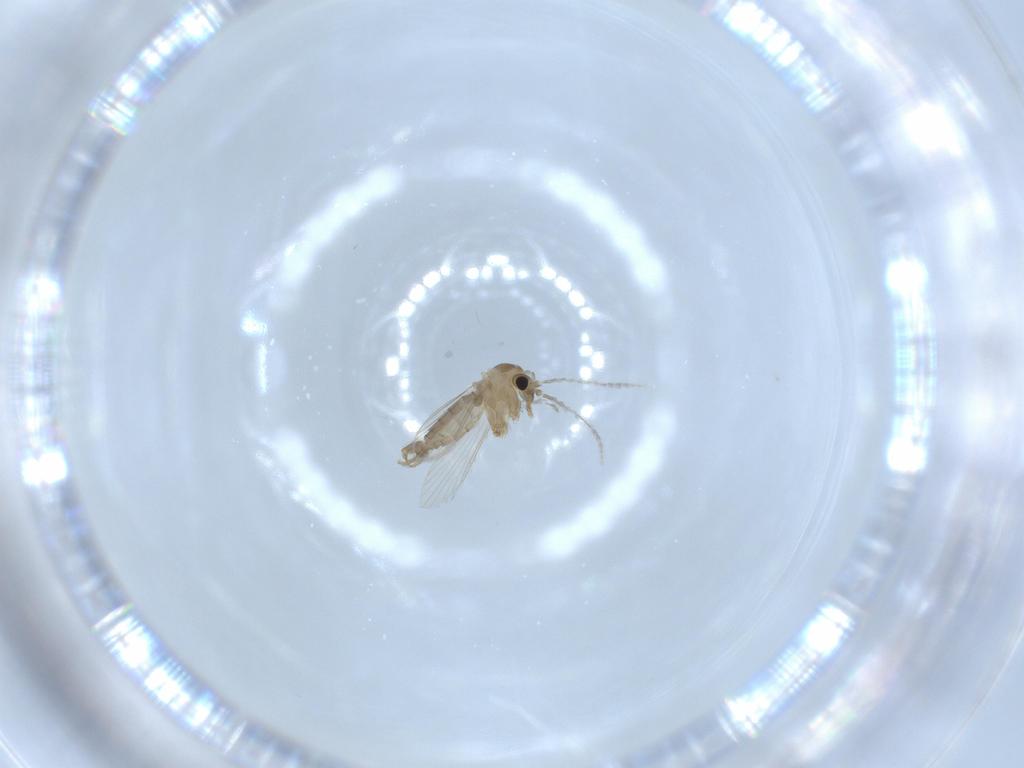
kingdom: Animalia
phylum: Arthropoda
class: Insecta
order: Diptera
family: Psychodidae
